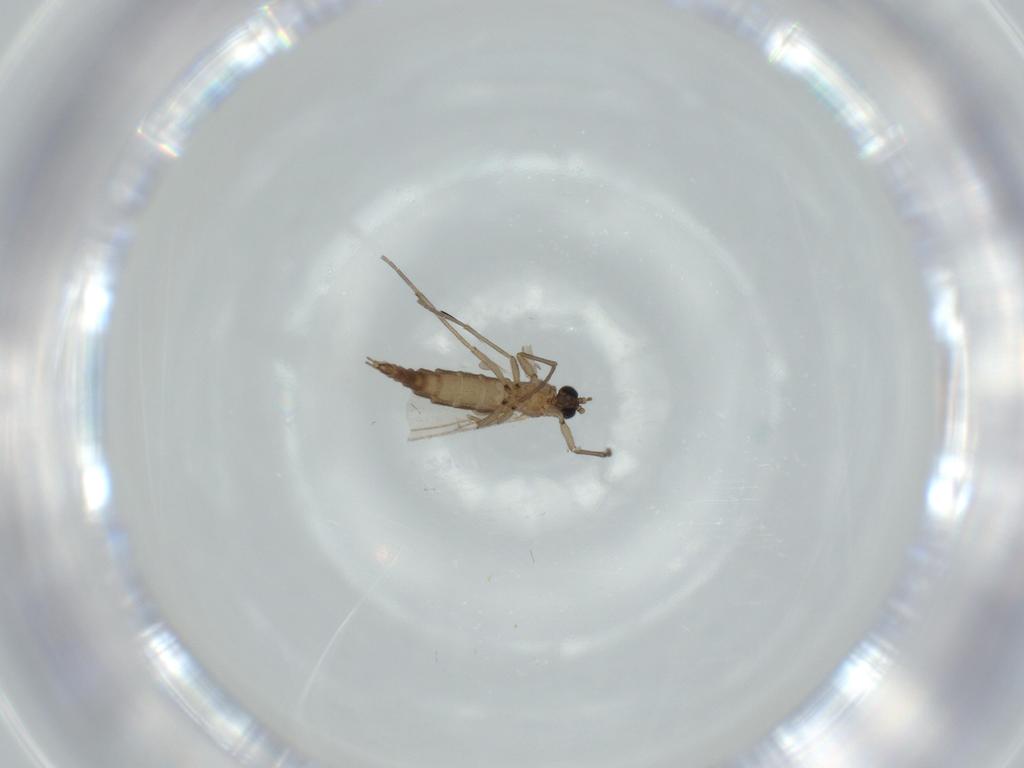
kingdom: Animalia
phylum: Arthropoda
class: Insecta
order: Diptera
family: Sciaridae
